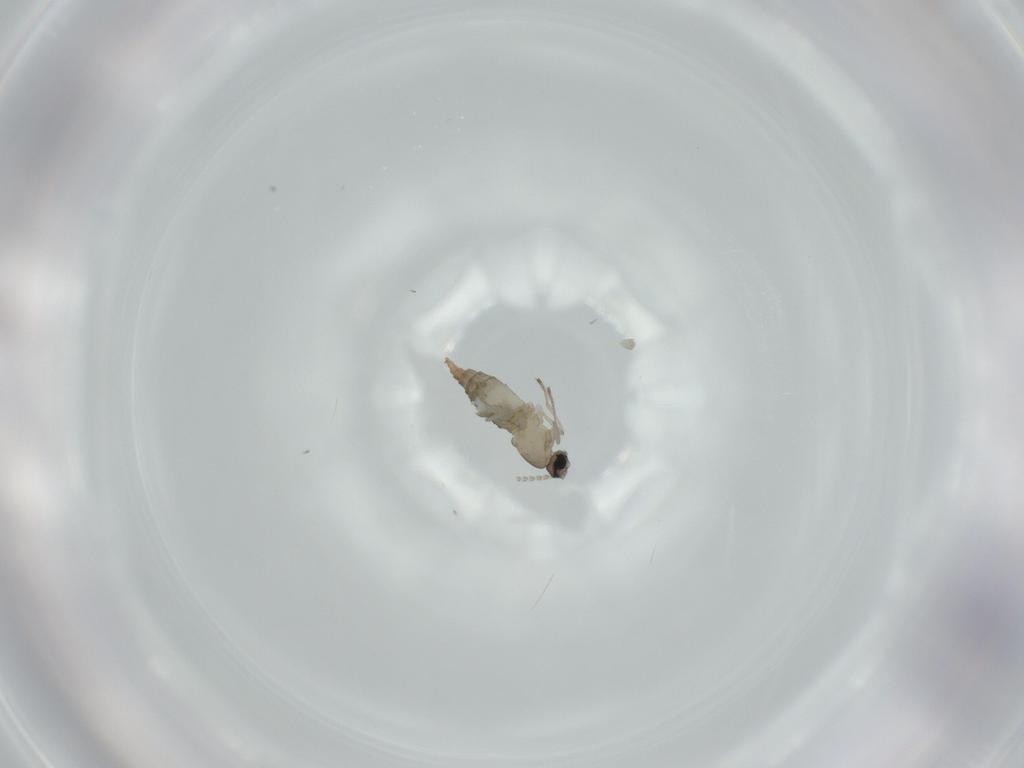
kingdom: Animalia
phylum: Arthropoda
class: Insecta
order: Diptera
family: Cecidomyiidae
